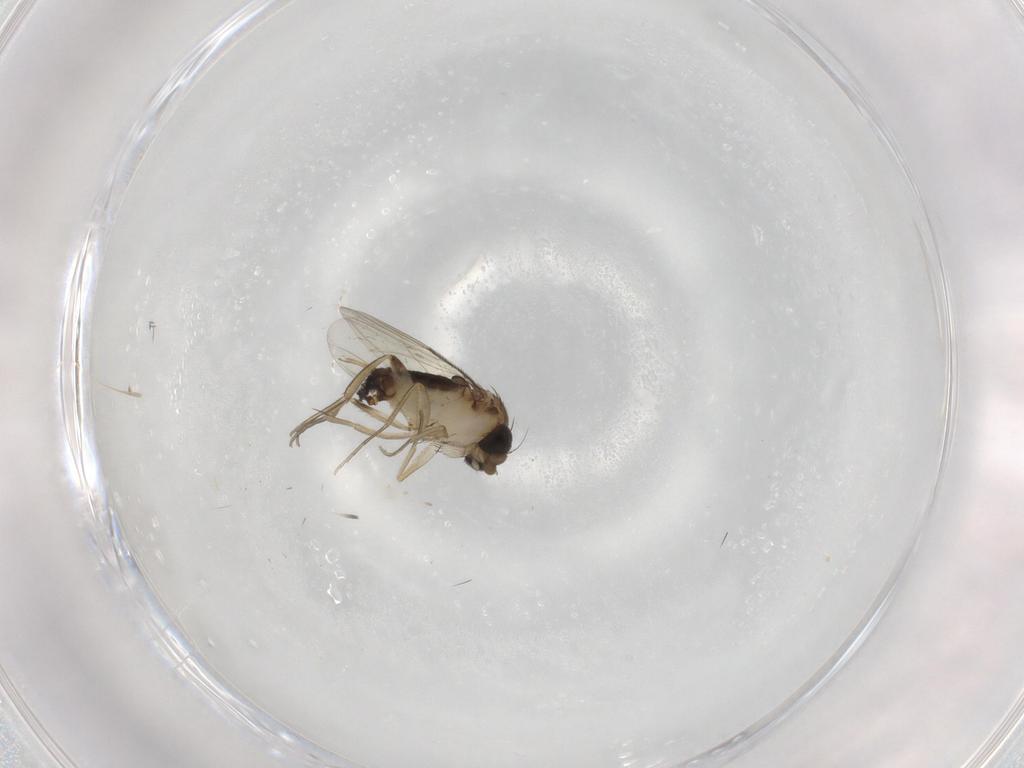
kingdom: Animalia
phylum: Arthropoda
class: Insecta
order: Diptera
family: Phoridae
